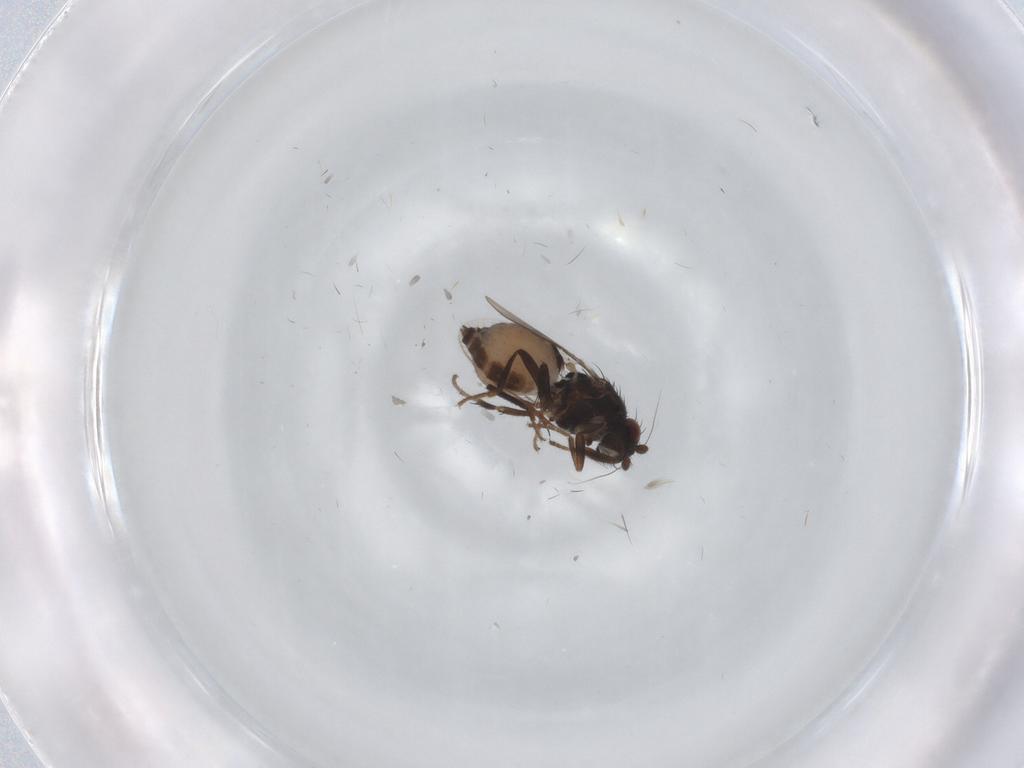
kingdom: Animalia
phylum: Arthropoda
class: Insecta
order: Diptera
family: Sphaeroceridae
